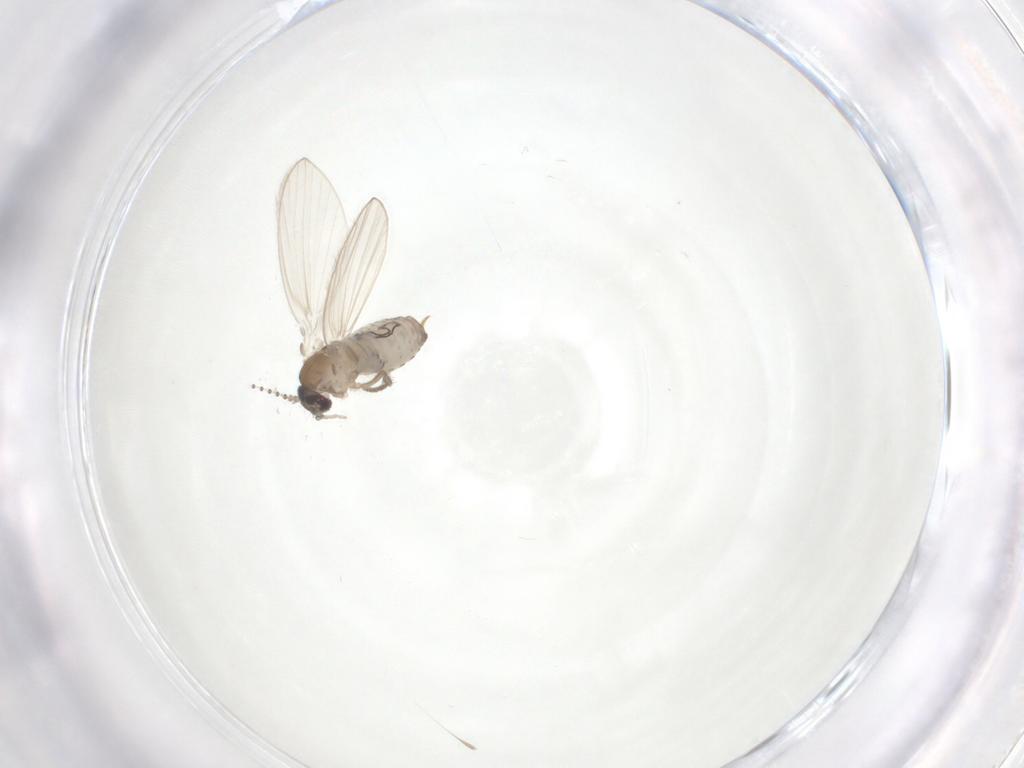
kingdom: Animalia
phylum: Arthropoda
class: Insecta
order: Diptera
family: Psychodidae
